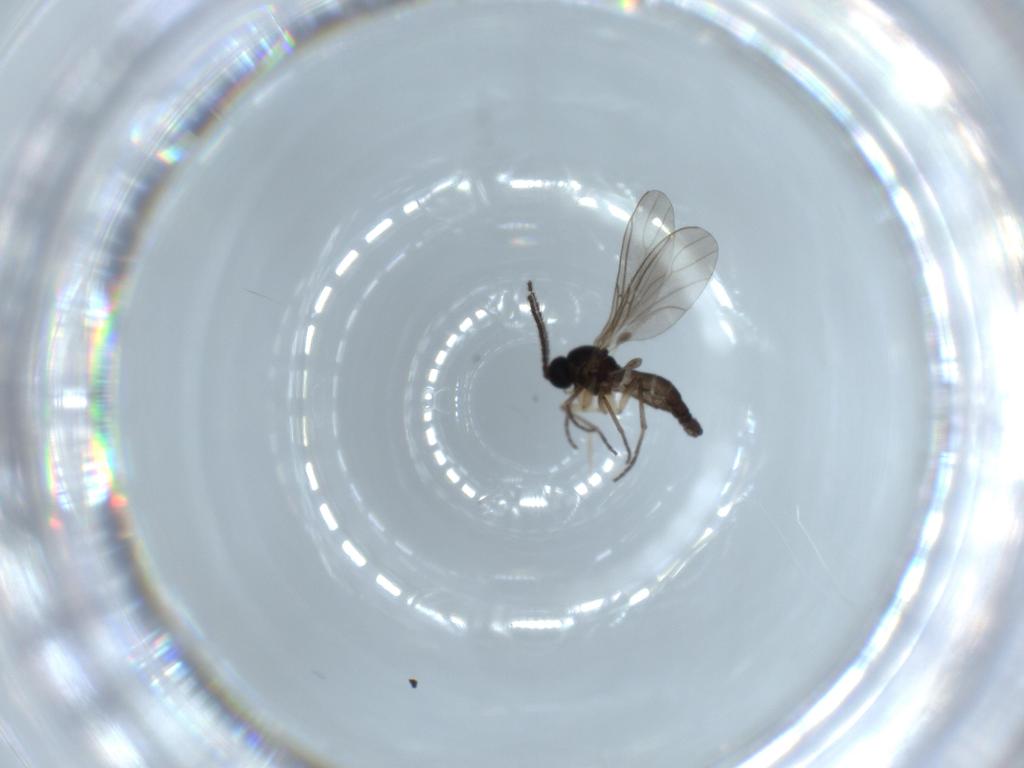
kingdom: Animalia
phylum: Arthropoda
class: Insecta
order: Diptera
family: Sciaridae
